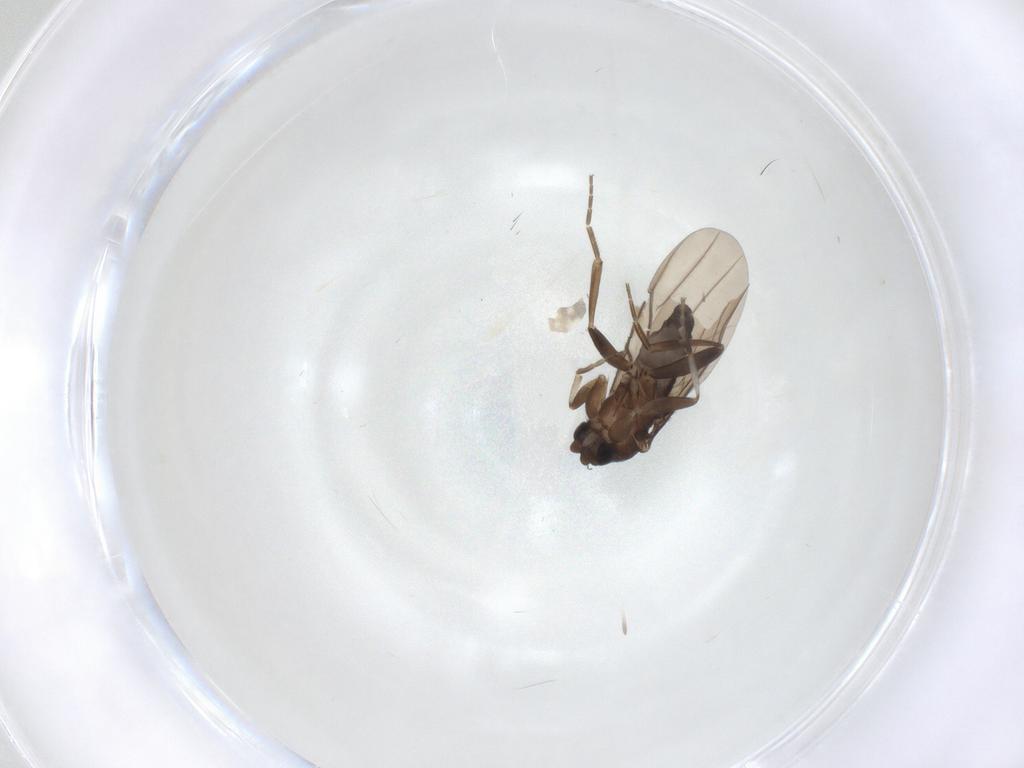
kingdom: Animalia
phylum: Arthropoda
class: Insecta
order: Diptera
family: Phoridae
